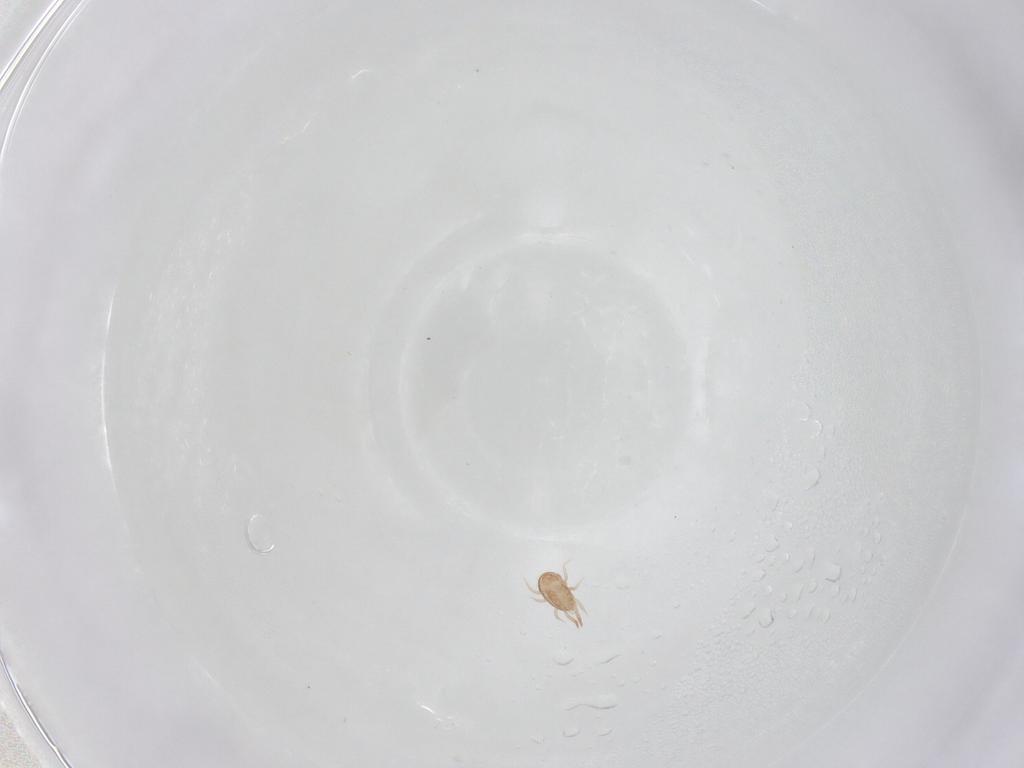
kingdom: Animalia
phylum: Arthropoda
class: Arachnida
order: Mesostigmata
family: Ameroseiidae
